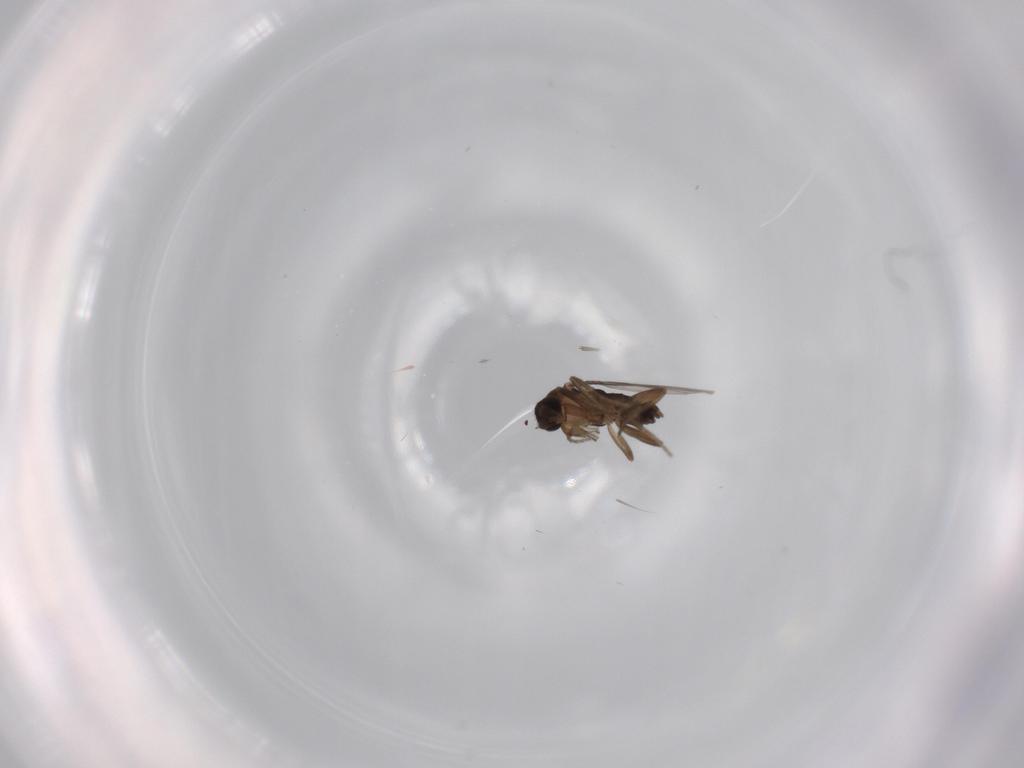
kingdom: Animalia
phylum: Arthropoda
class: Insecta
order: Diptera
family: Phoridae
